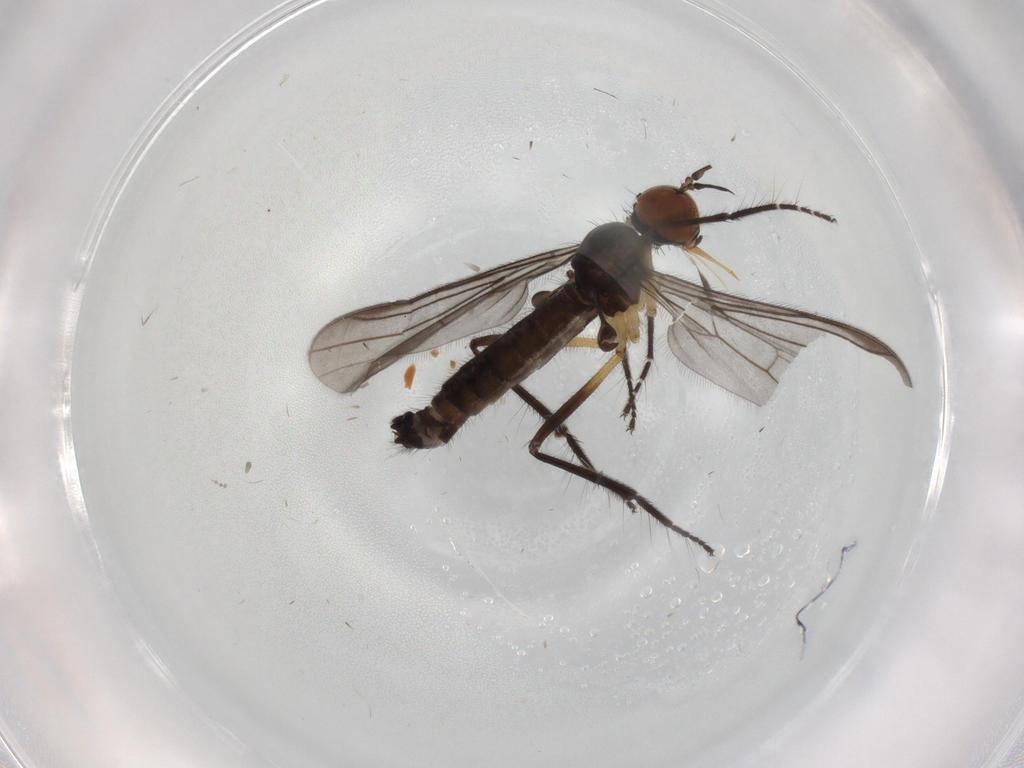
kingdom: Animalia
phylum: Arthropoda
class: Insecta
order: Diptera
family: Empididae
